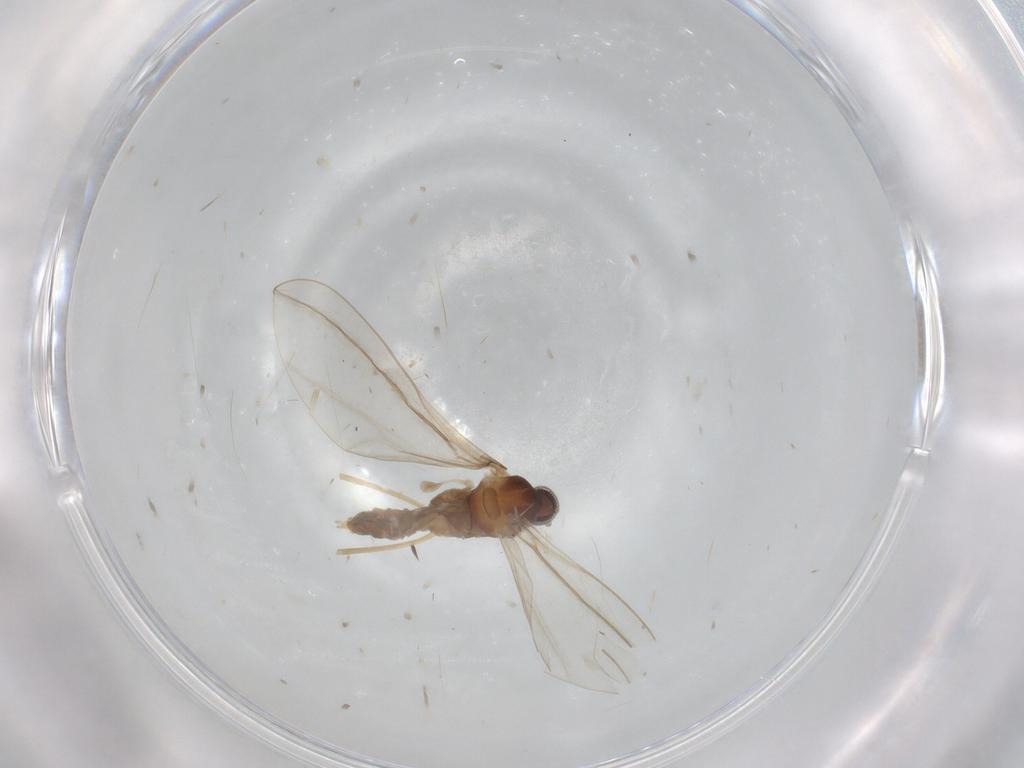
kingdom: Animalia
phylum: Arthropoda
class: Insecta
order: Diptera
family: Cecidomyiidae
